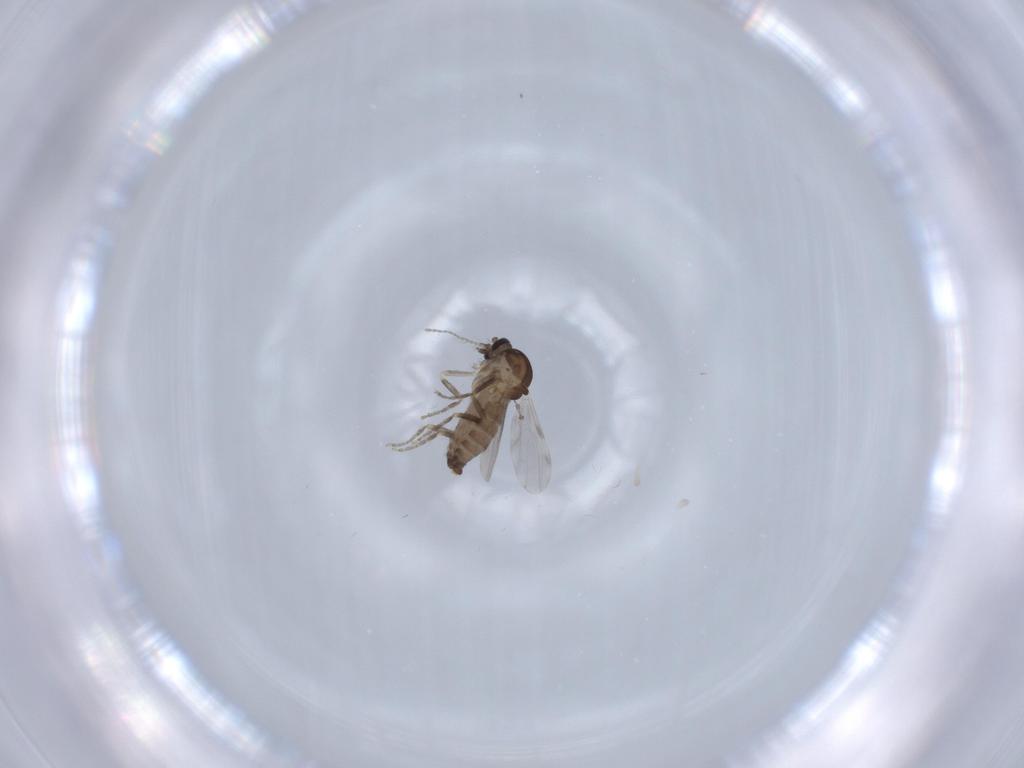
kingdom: Animalia
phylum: Arthropoda
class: Insecta
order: Diptera
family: Ceratopogonidae
